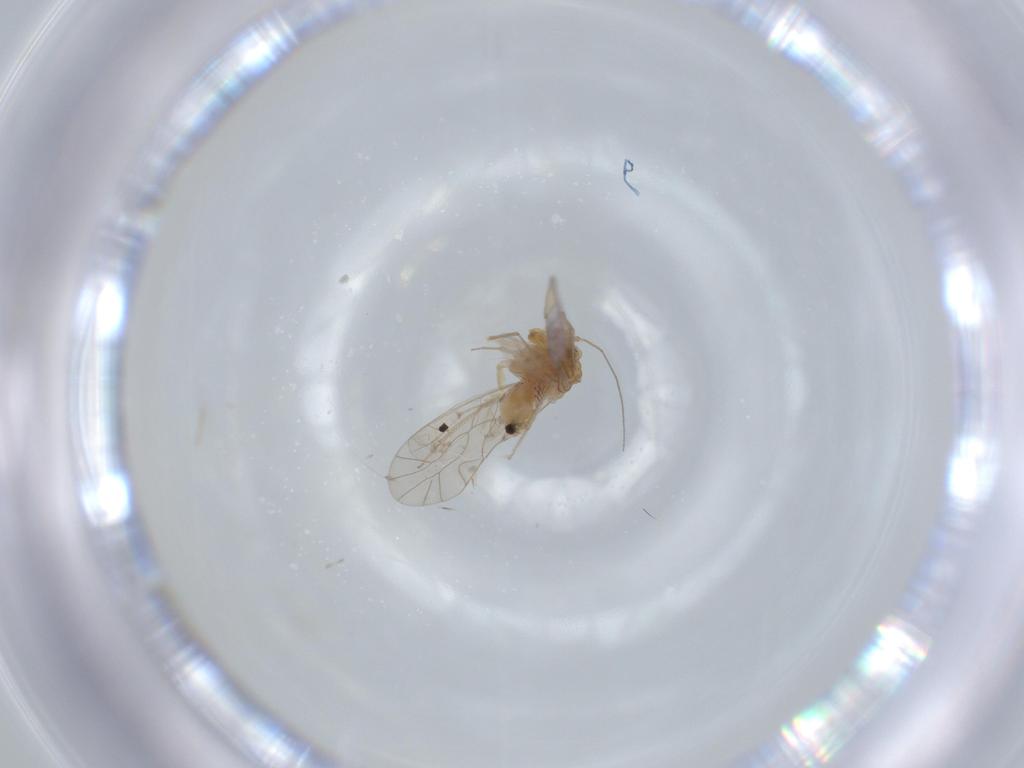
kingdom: Animalia
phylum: Arthropoda
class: Insecta
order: Psocodea
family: Lachesillidae
